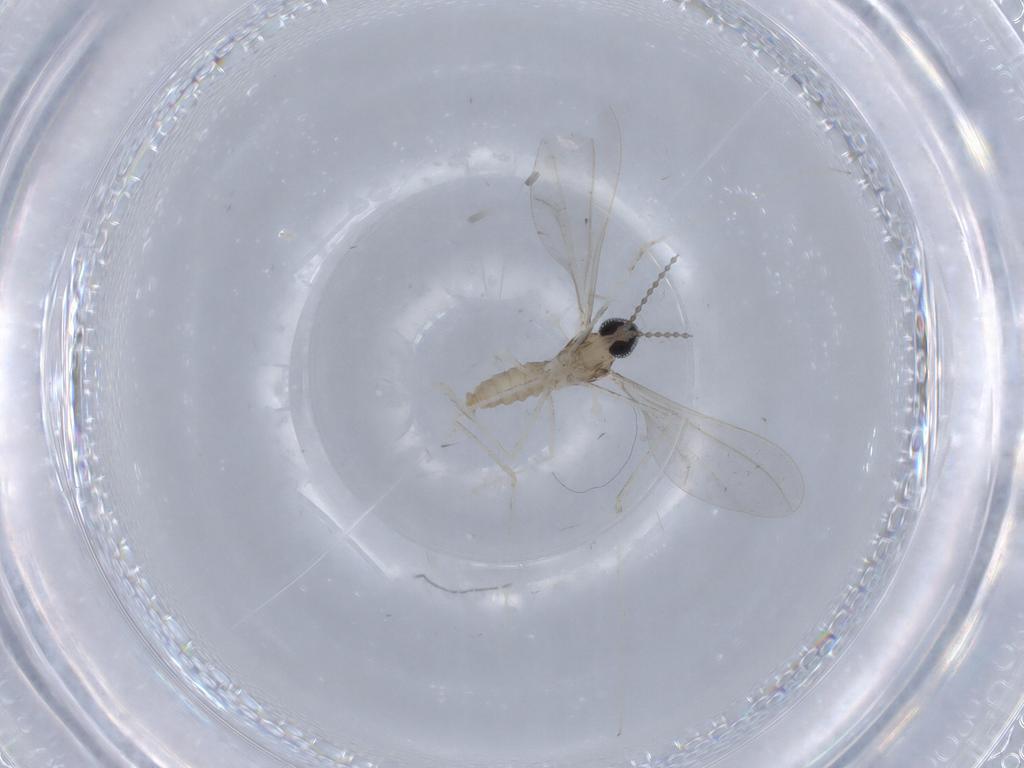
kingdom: Animalia
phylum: Arthropoda
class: Insecta
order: Diptera
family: Cecidomyiidae
